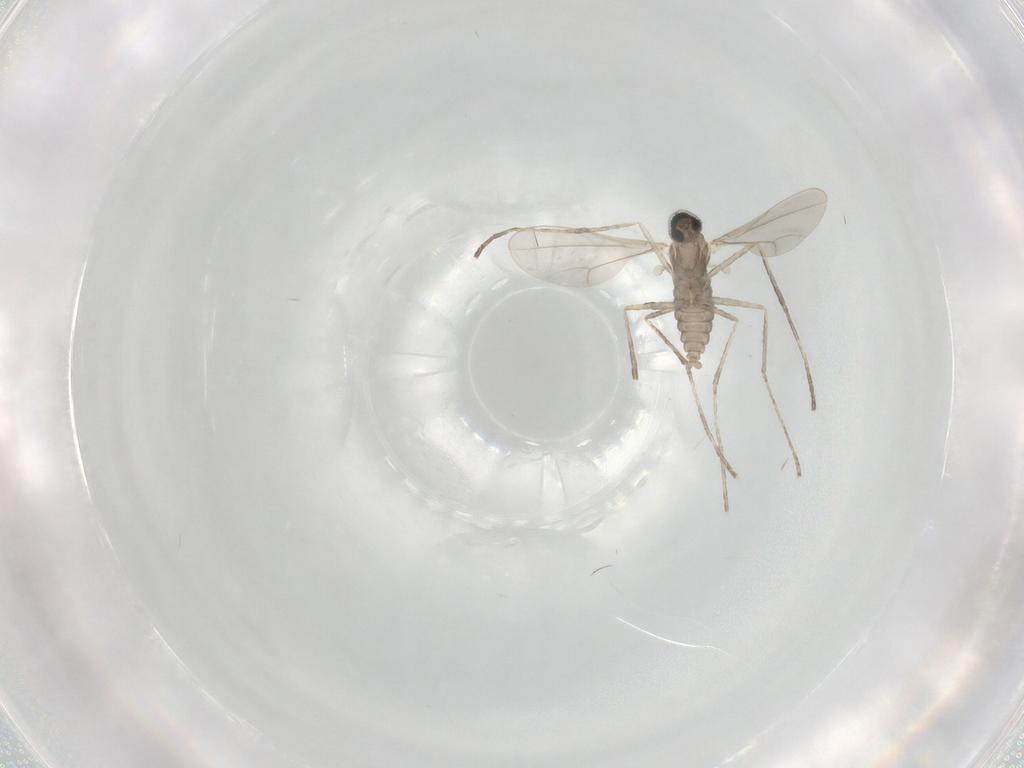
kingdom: Animalia
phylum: Arthropoda
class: Insecta
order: Diptera
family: Cecidomyiidae
